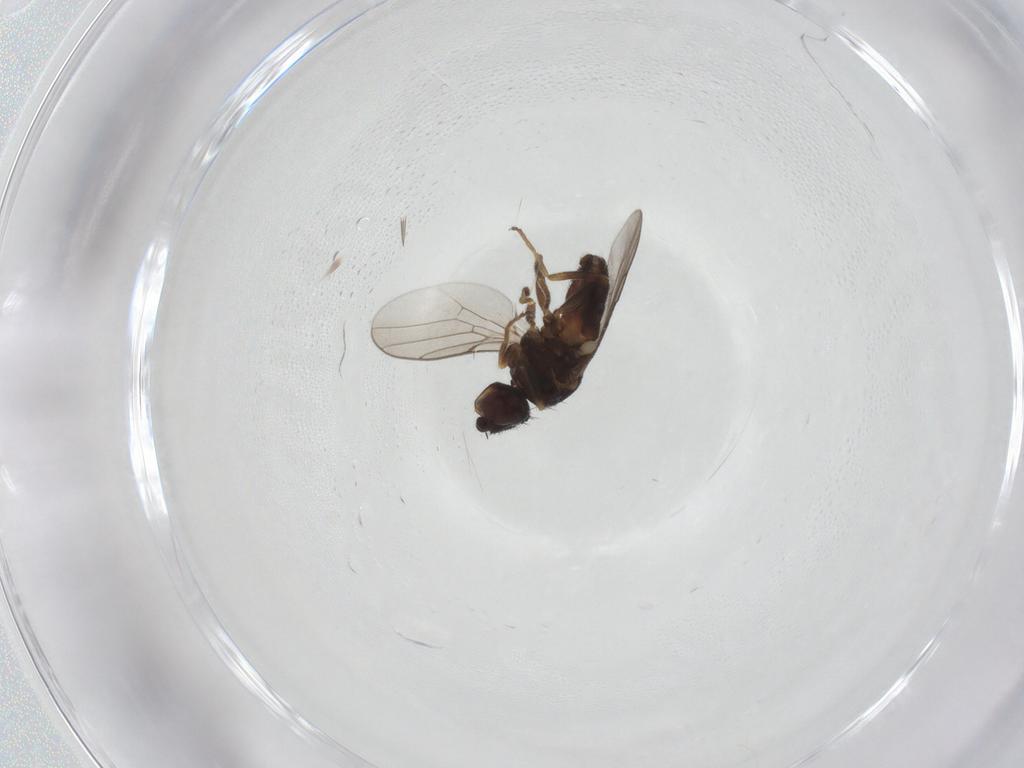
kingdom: Animalia
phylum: Arthropoda
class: Insecta
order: Diptera
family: Chloropidae
